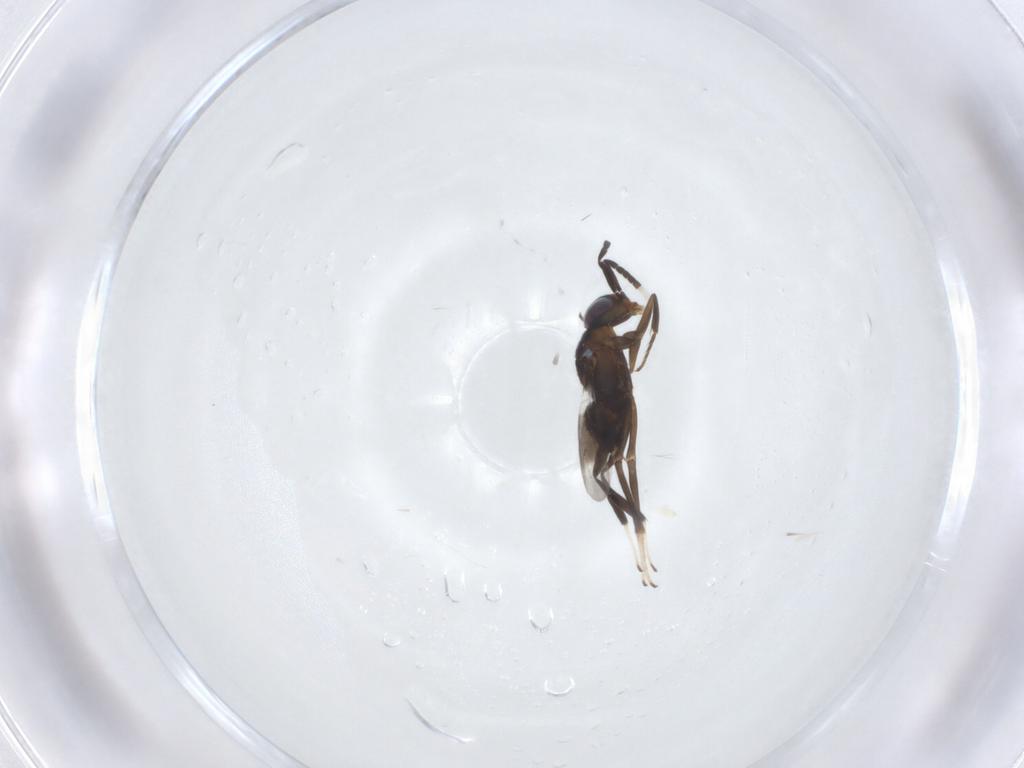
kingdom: Animalia
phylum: Arthropoda
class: Insecta
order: Hymenoptera
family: Encyrtidae
